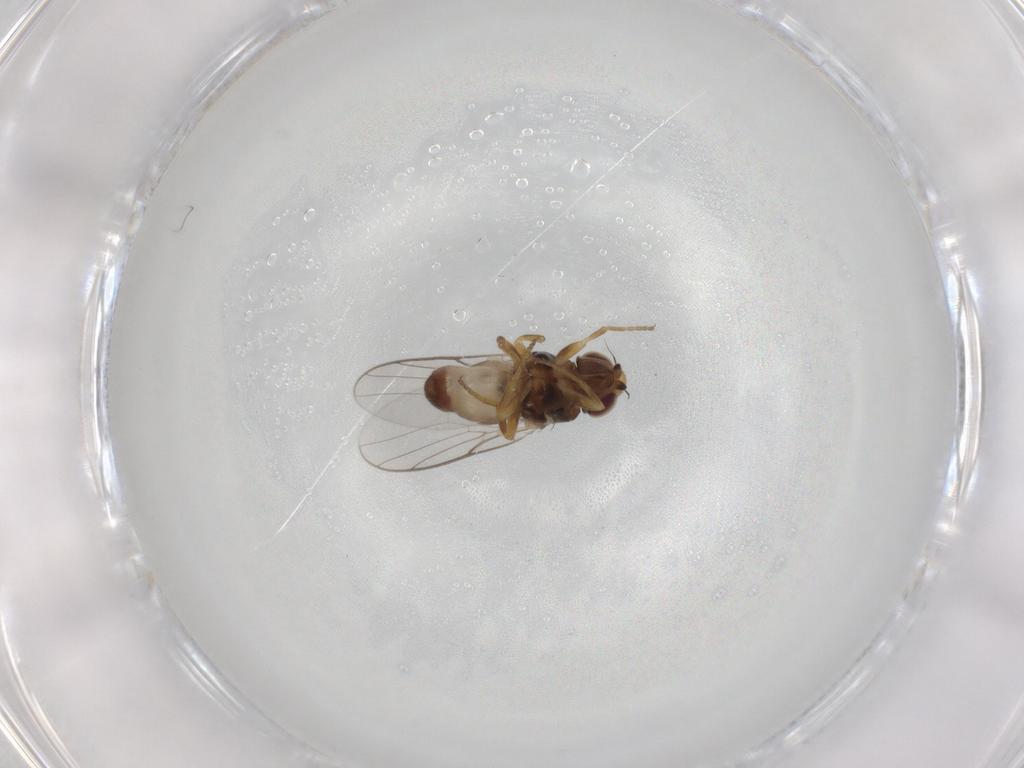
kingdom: Animalia
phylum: Arthropoda
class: Insecta
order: Diptera
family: Chloropidae
